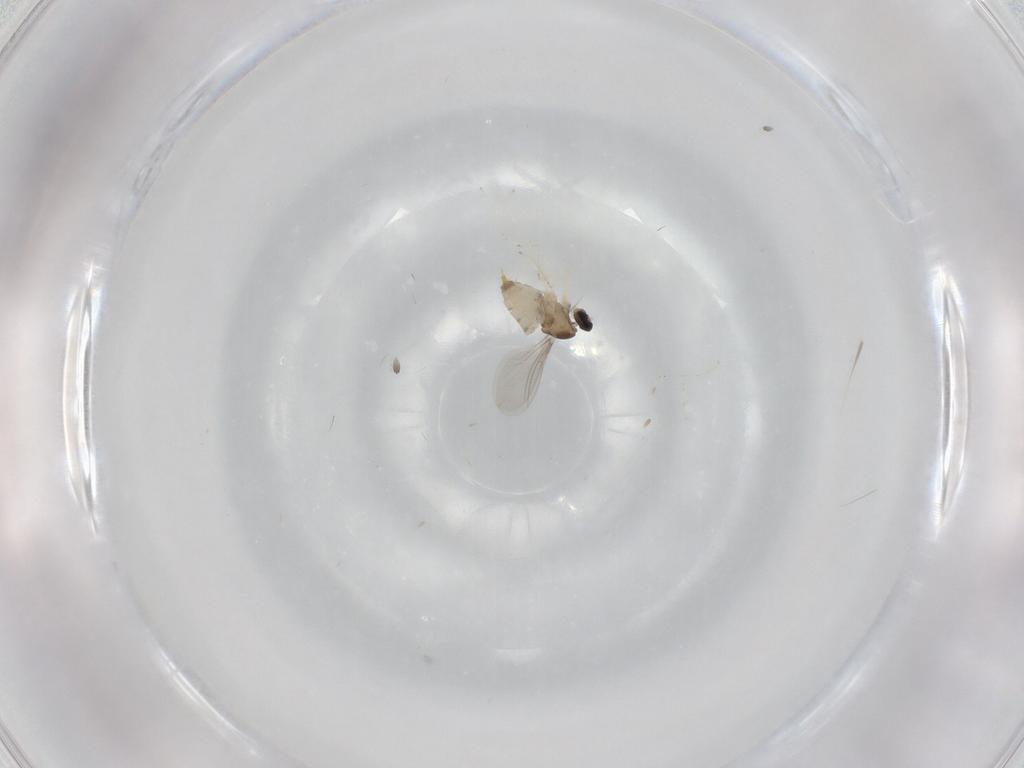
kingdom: Animalia
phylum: Arthropoda
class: Insecta
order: Diptera
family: Cecidomyiidae
